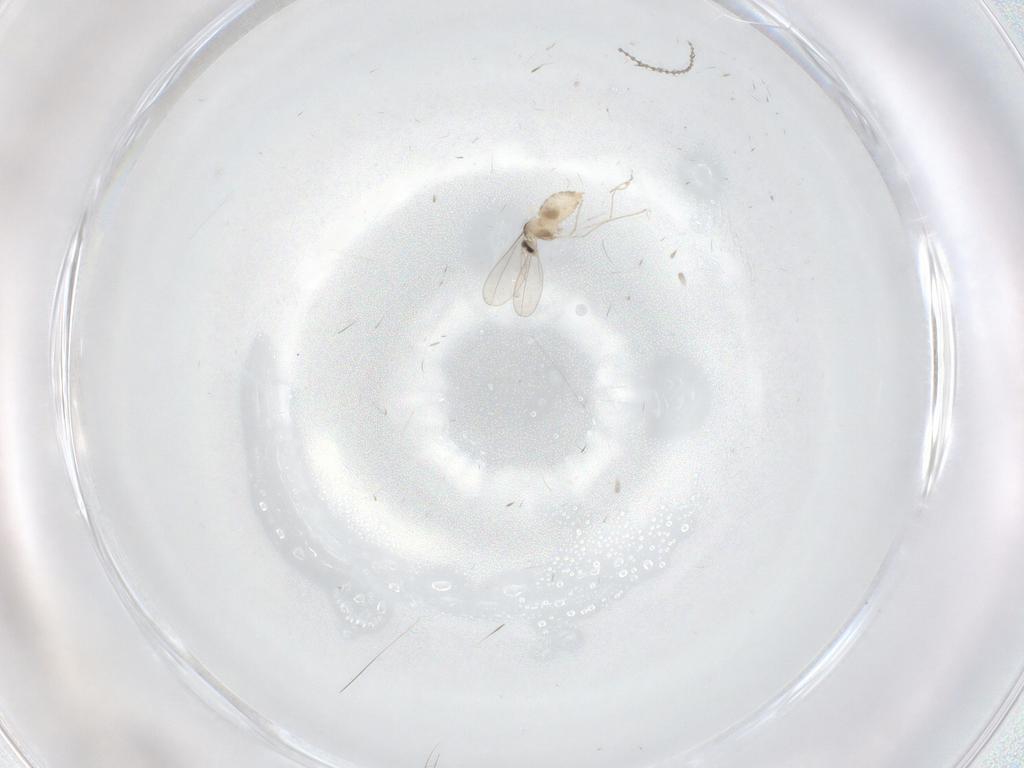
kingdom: Animalia
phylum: Arthropoda
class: Insecta
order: Diptera
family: Cecidomyiidae
